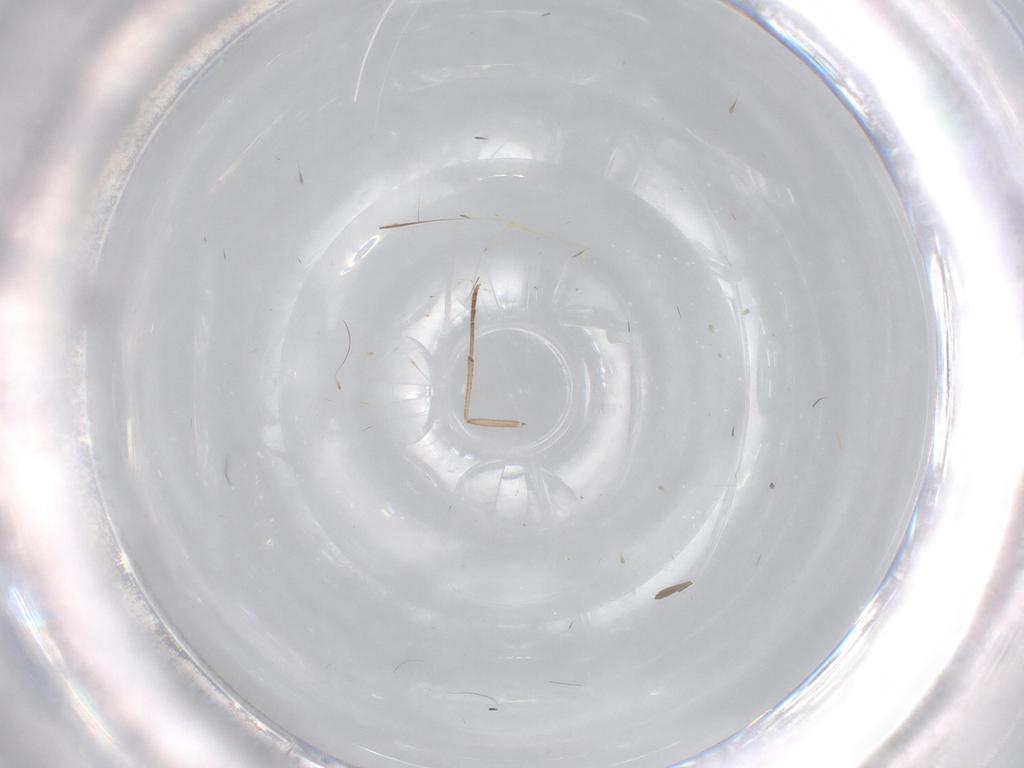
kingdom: Animalia
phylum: Arthropoda
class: Insecta
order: Diptera
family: Cecidomyiidae
